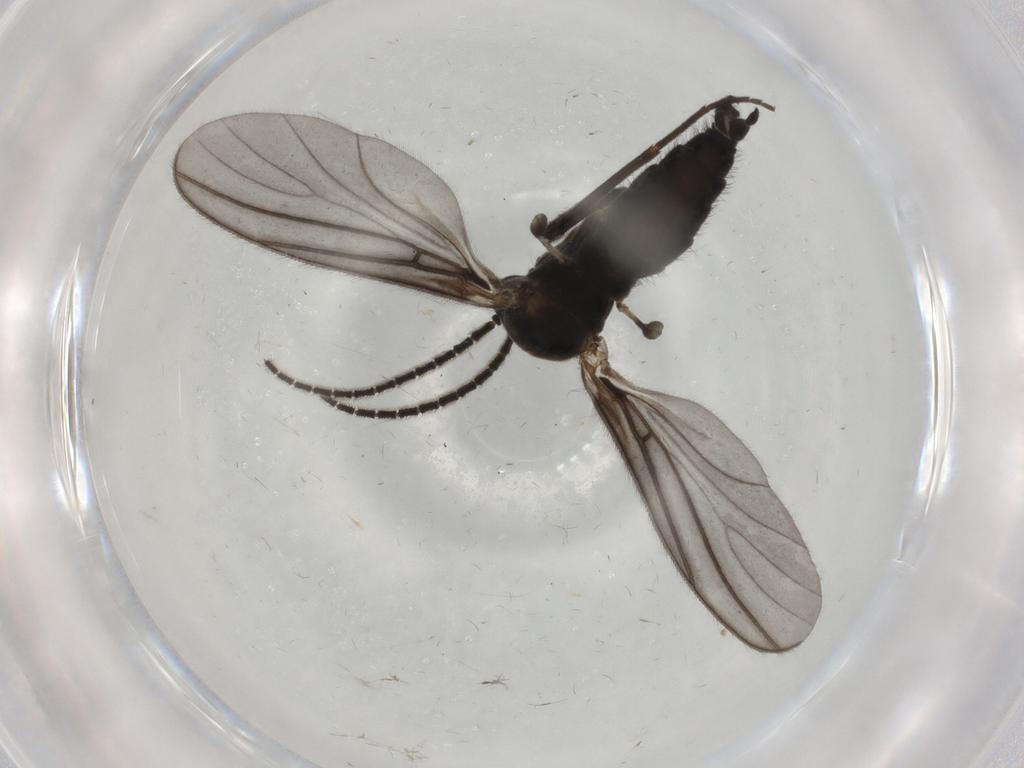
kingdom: Animalia
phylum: Arthropoda
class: Insecta
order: Diptera
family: Sciaridae
